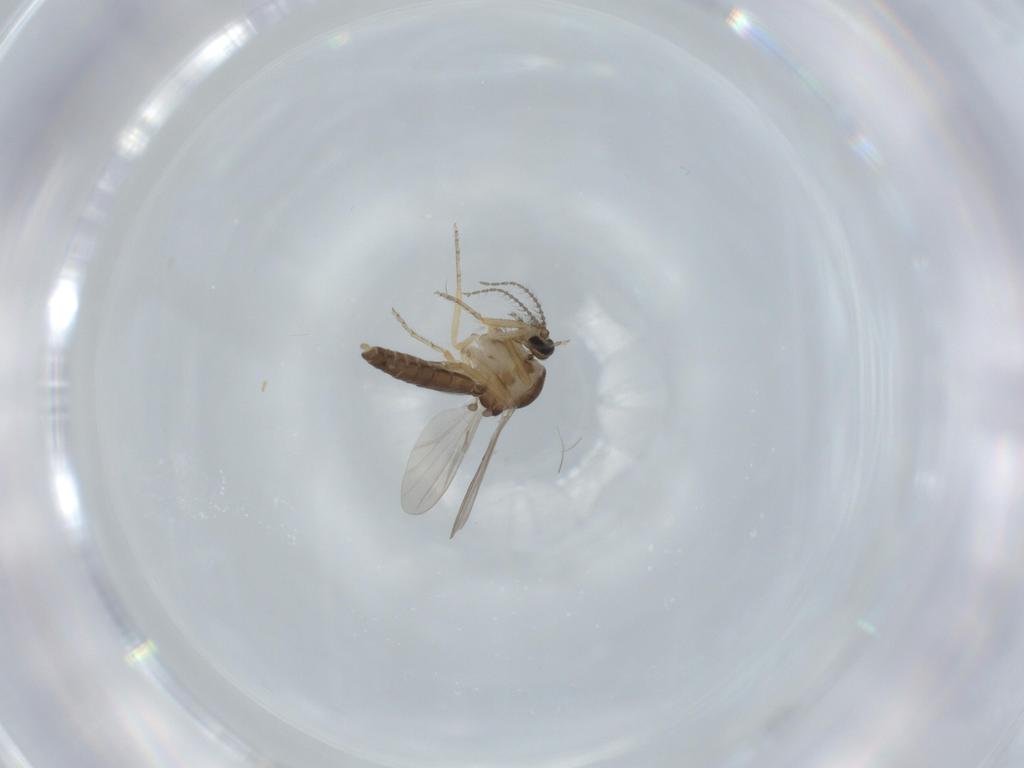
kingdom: Animalia
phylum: Arthropoda
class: Insecta
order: Diptera
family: Ceratopogonidae
